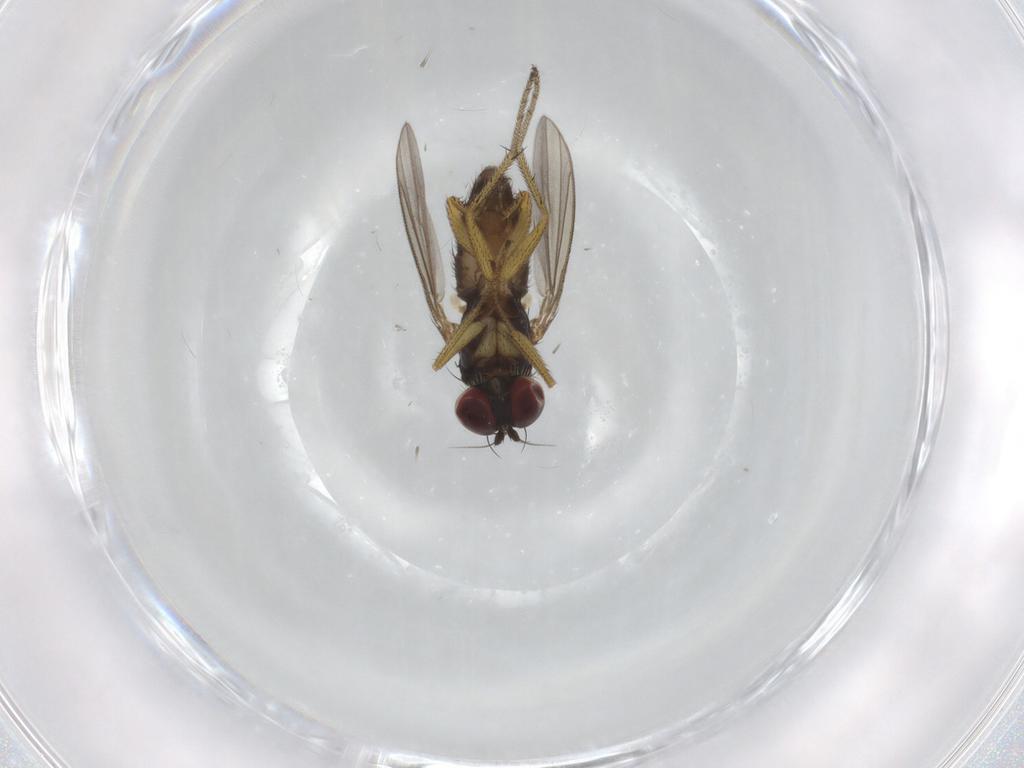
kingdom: Animalia
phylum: Arthropoda
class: Insecta
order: Diptera
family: Dolichopodidae
